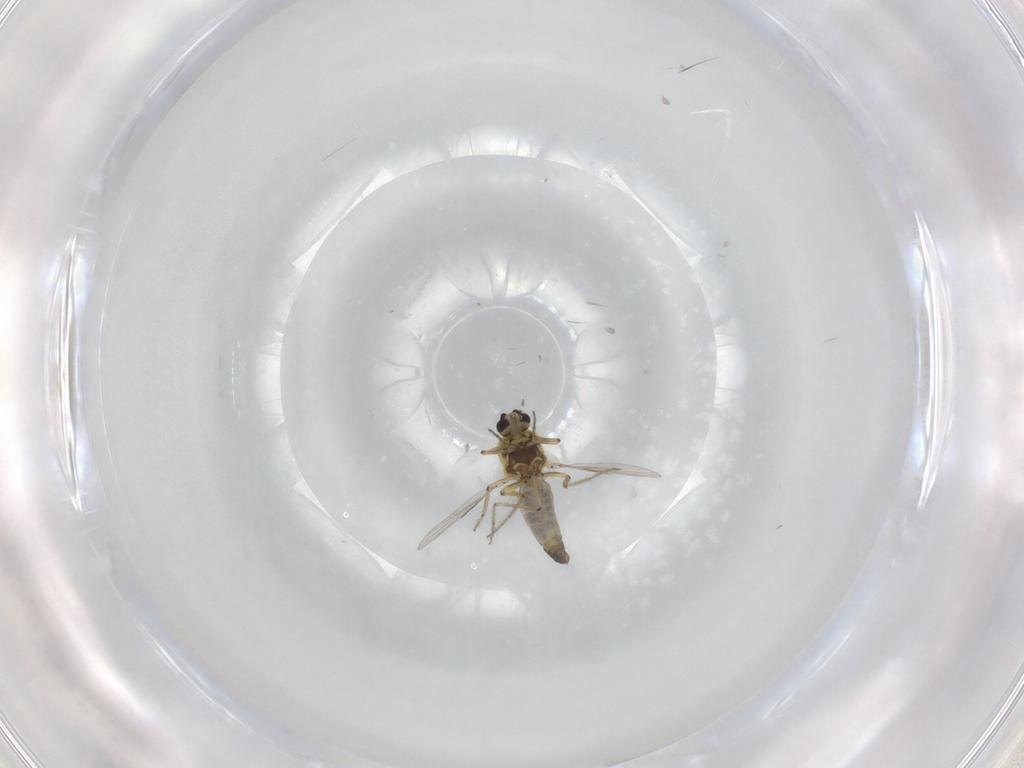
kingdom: Animalia
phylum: Arthropoda
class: Insecta
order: Diptera
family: Ceratopogonidae
